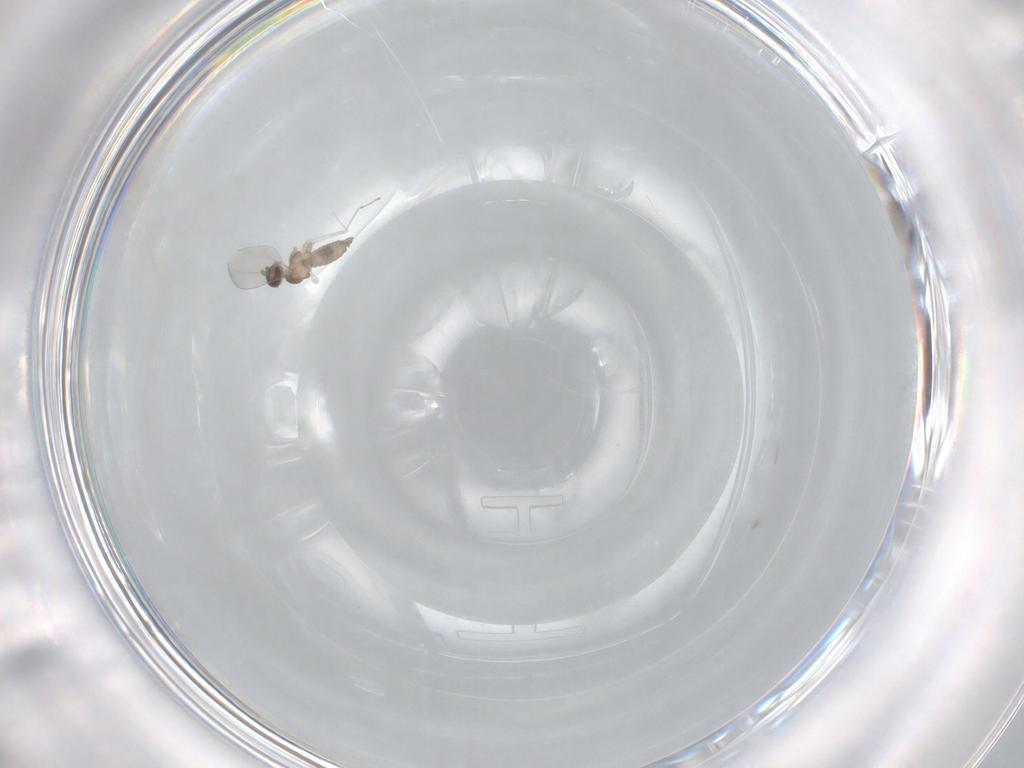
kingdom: Animalia
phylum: Arthropoda
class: Insecta
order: Diptera
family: Cecidomyiidae
